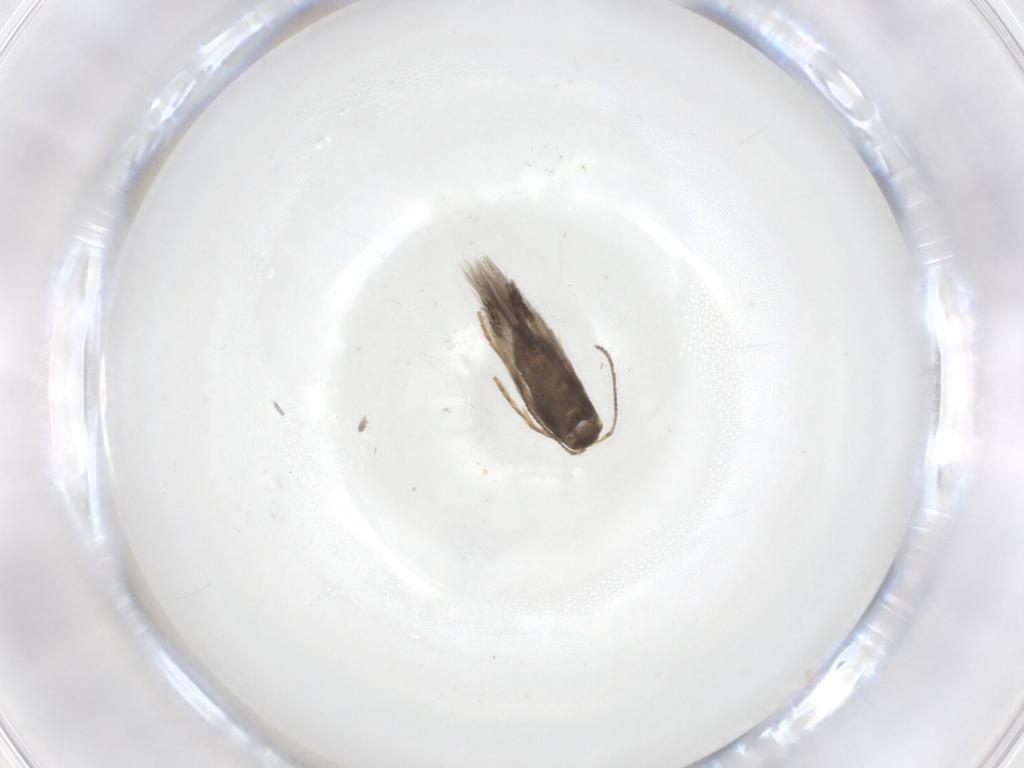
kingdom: Animalia
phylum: Arthropoda
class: Insecta
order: Lepidoptera
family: Nepticulidae
